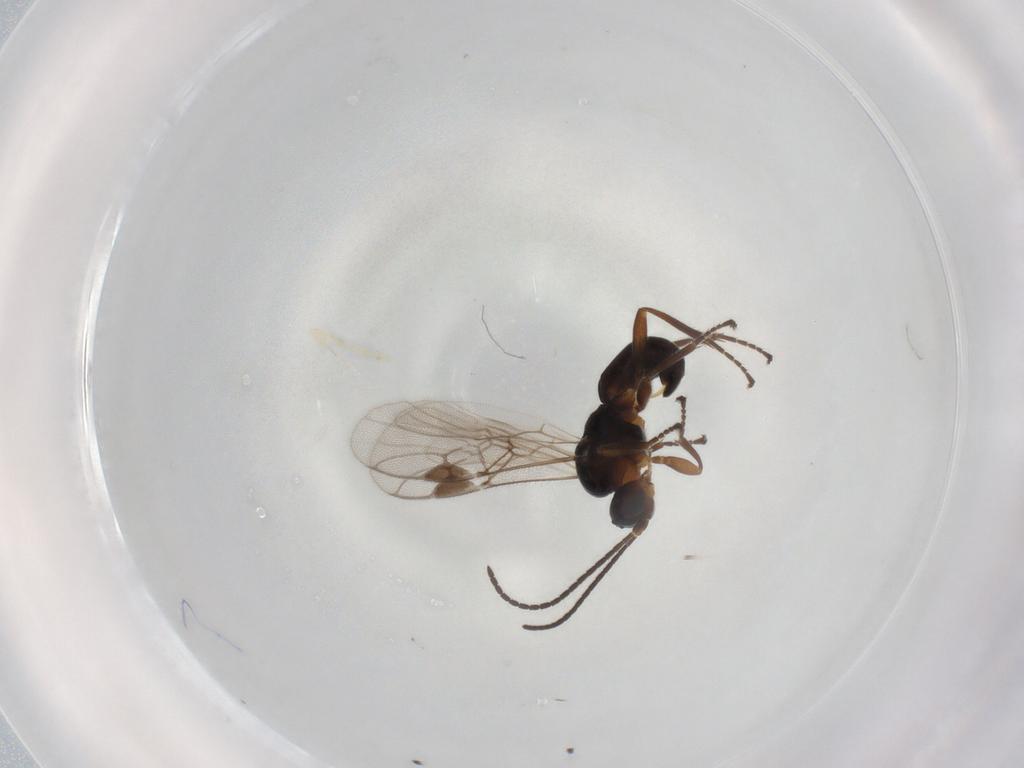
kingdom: Animalia
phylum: Arthropoda
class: Insecta
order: Hymenoptera
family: Braconidae
